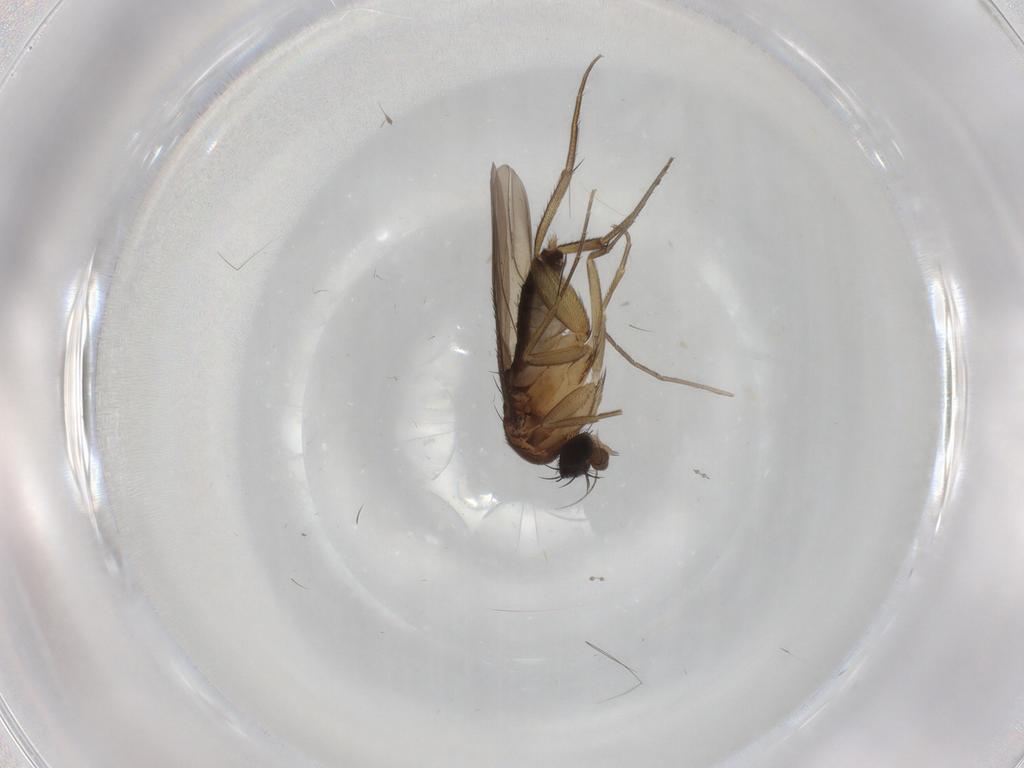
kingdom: Animalia
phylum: Arthropoda
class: Insecta
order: Diptera
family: Phoridae
